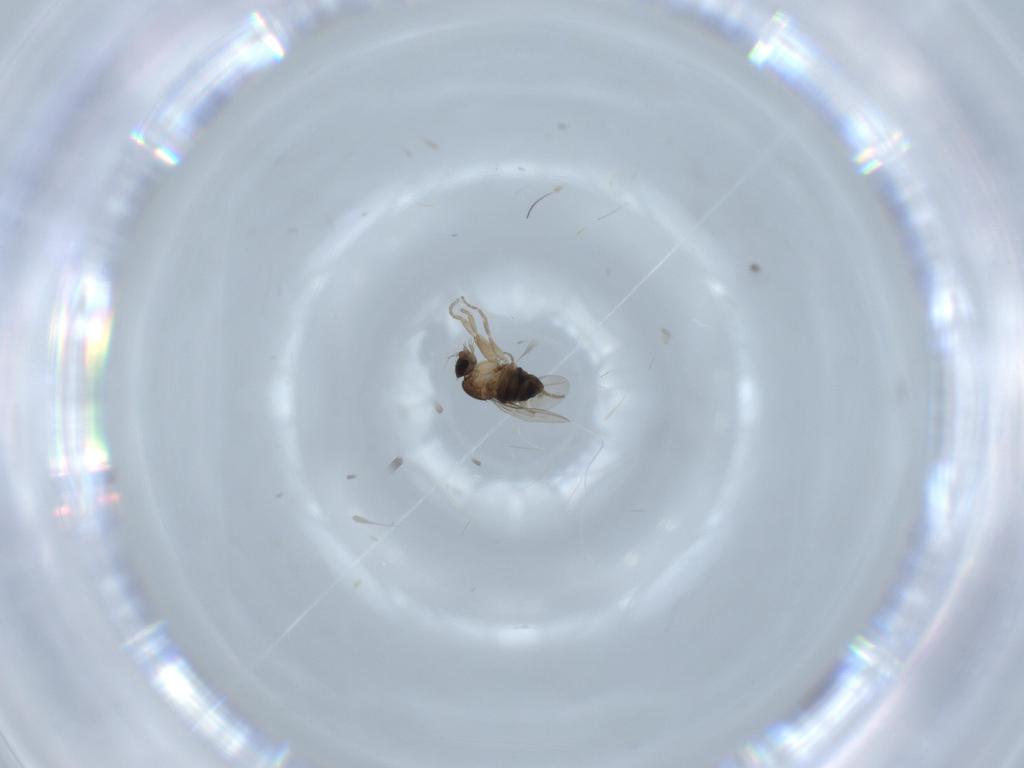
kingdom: Animalia
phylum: Arthropoda
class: Insecta
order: Diptera
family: Phoridae
